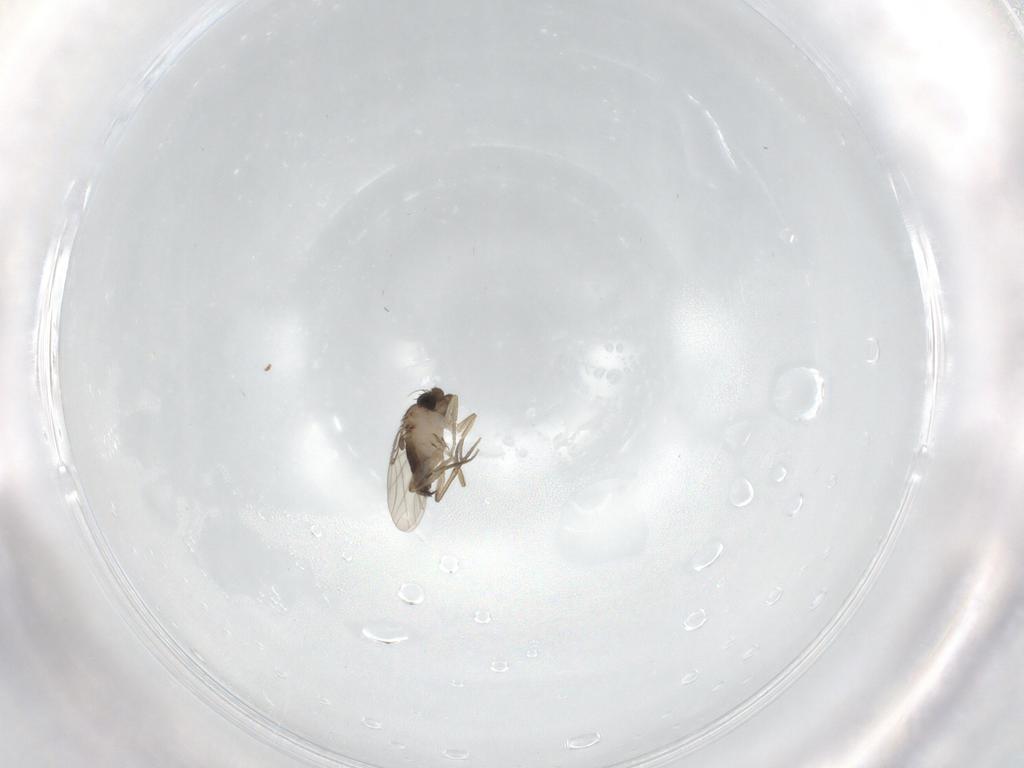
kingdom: Animalia
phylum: Arthropoda
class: Insecta
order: Diptera
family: Phoridae
